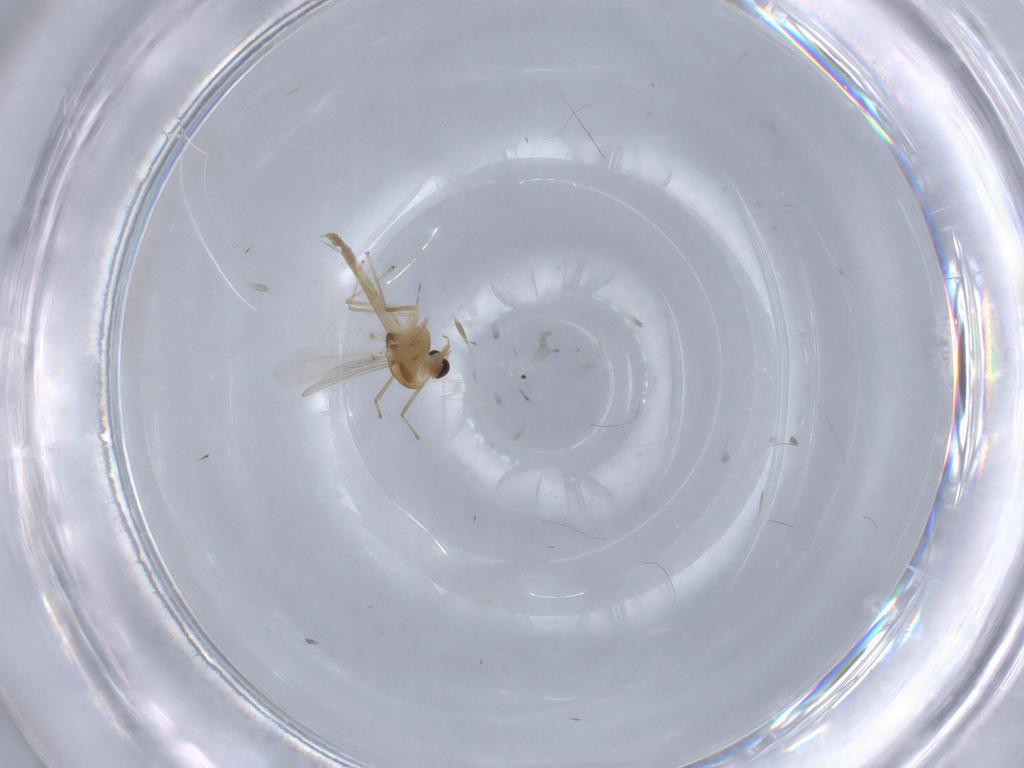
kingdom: Animalia
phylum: Arthropoda
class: Insecta
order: Diptera
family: Chironomidae
